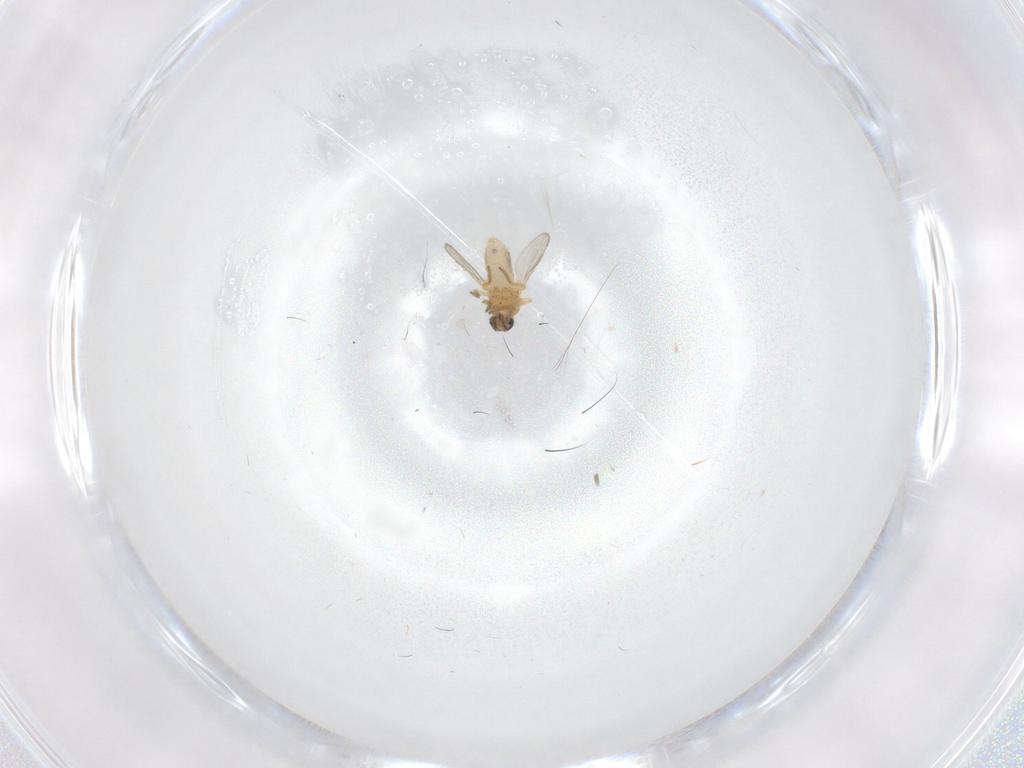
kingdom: Animalia
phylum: Arthropoda
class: Insecta
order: Diptera
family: Ceratopogonidae
